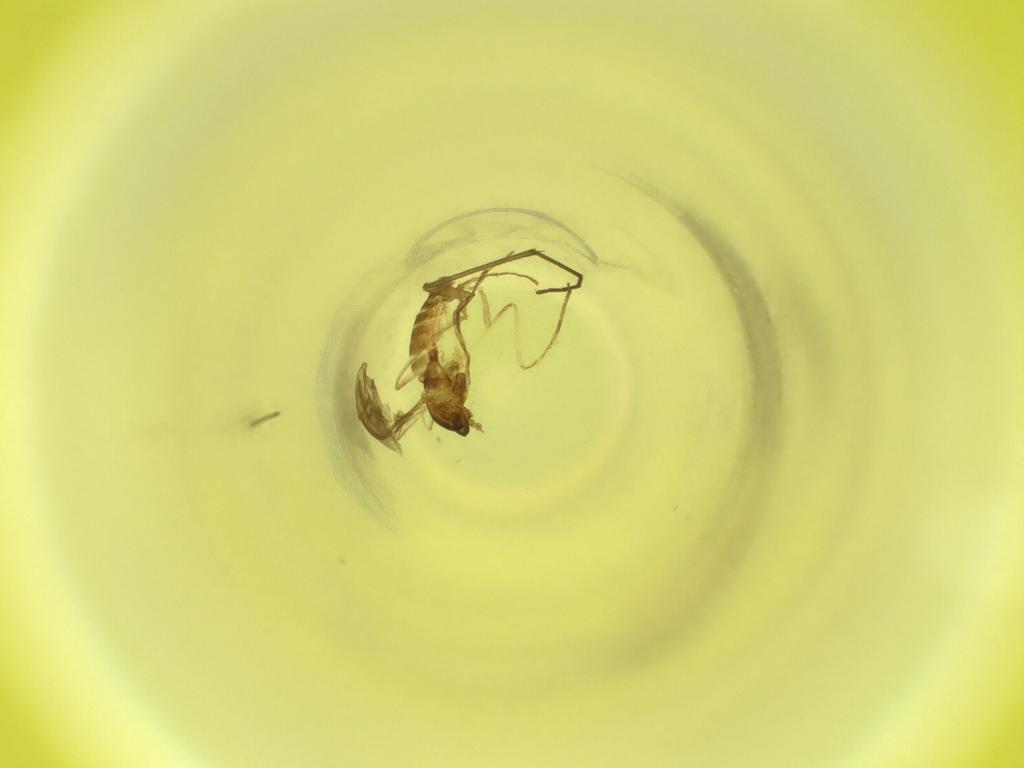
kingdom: Animalia
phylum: Arthropoda
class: Insecta
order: Diptera
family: Cecidomyiidae
